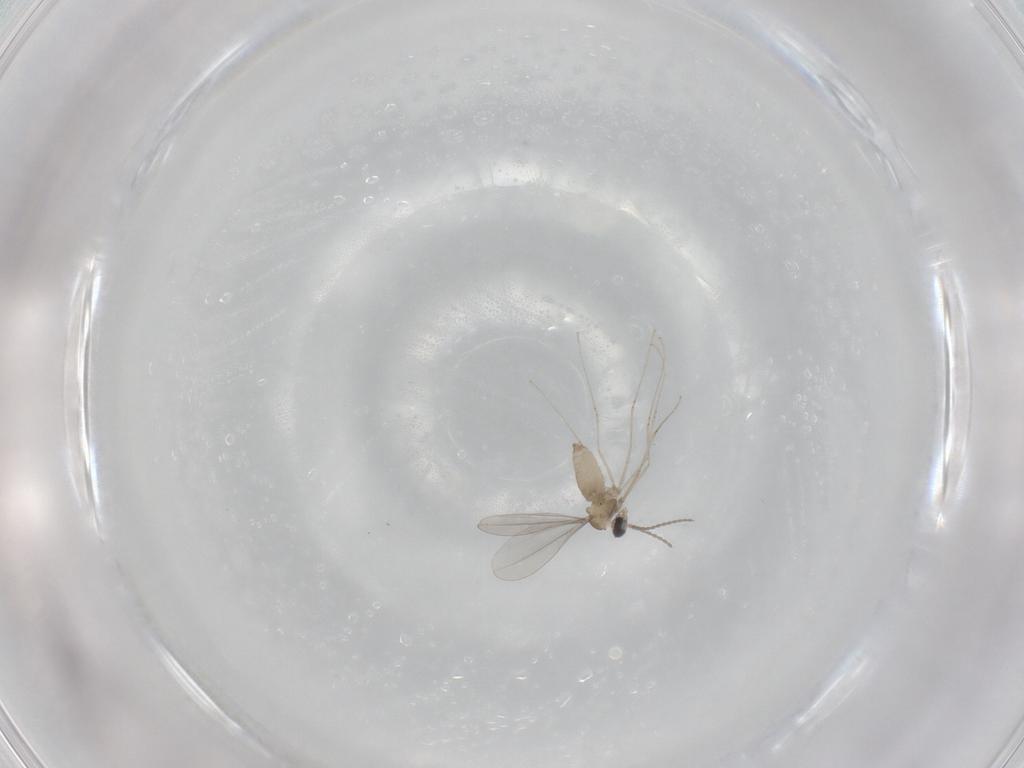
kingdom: Animalia
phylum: Arthropoda
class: Insecta
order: Diptera
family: Cecidomyiidae
